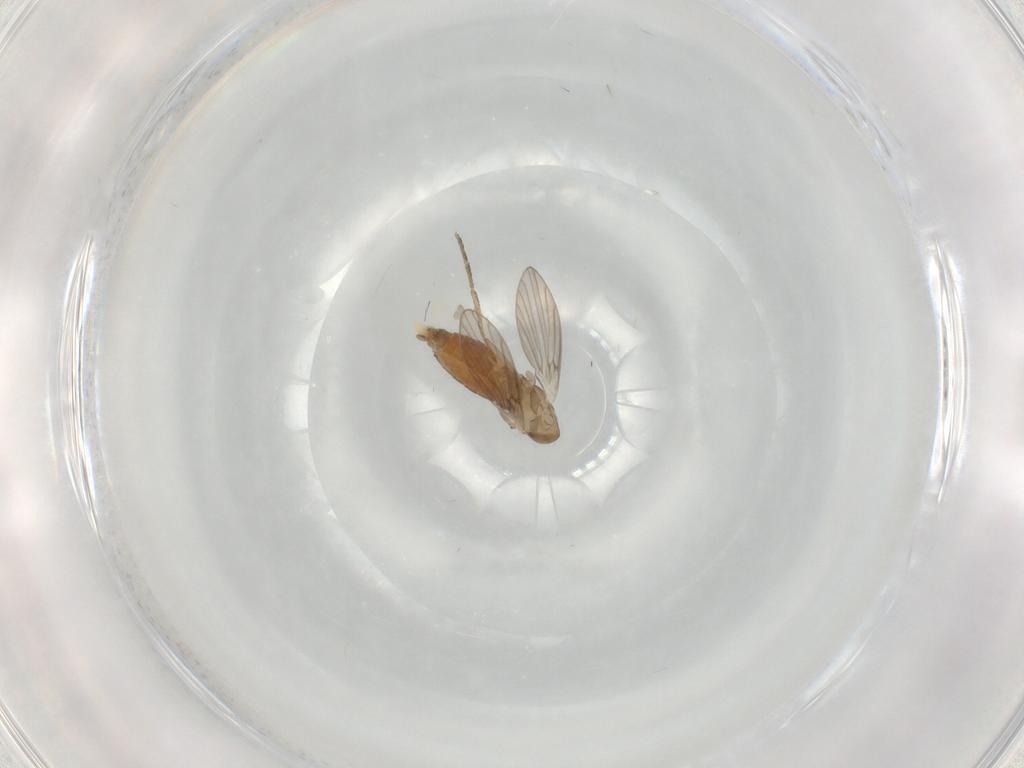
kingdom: Animalia
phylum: Arthropoda
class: Insecta
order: Diptera
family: Psychodidae
